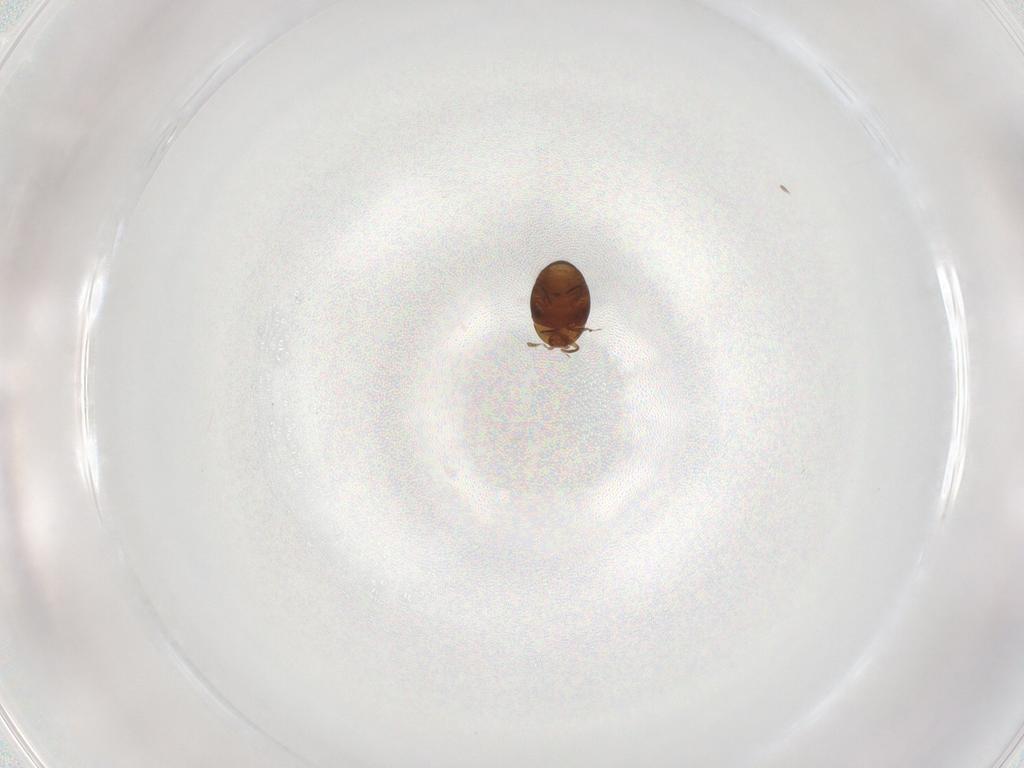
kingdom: Animalia
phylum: Arthropoda
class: Insecta
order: Coleoptera
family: Corylophidae
